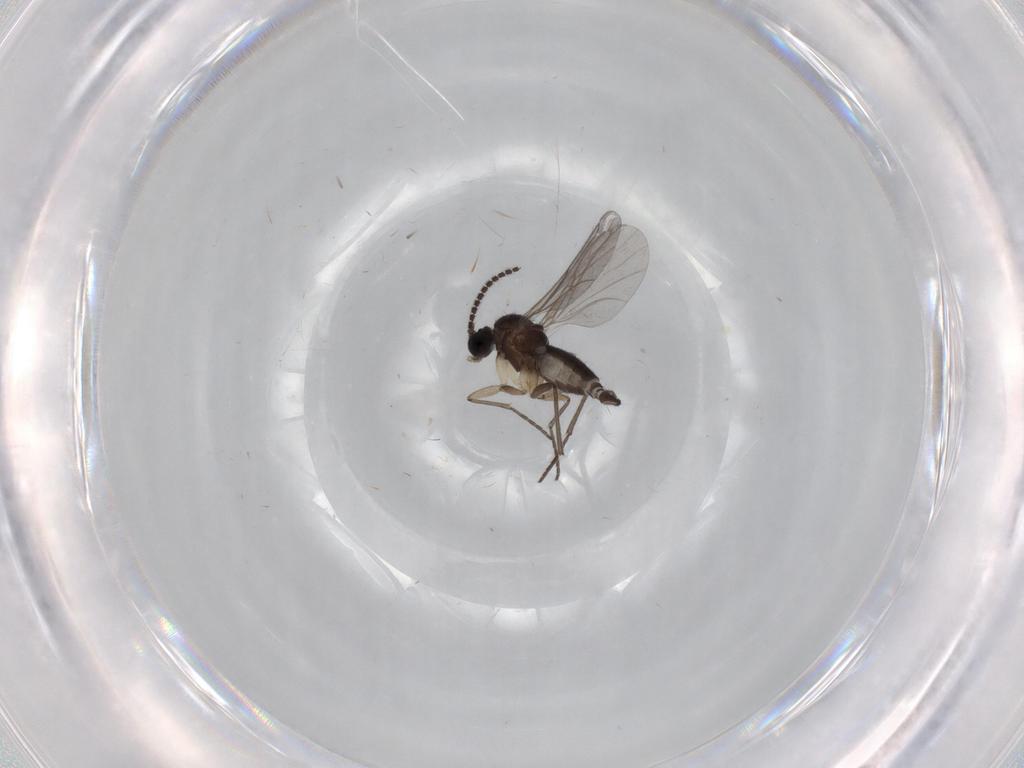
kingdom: Animalia
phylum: Arthropoda
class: Insecta
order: Diptera
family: Sciaridae
